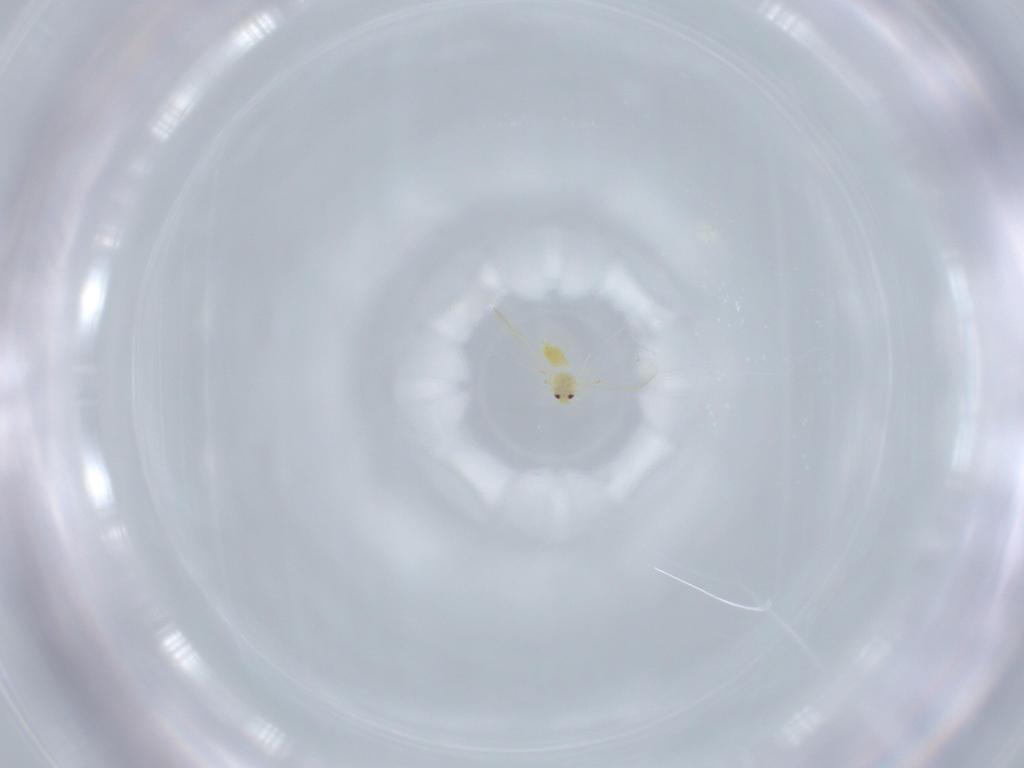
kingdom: Animalia
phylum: Arthropoda
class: Insecta
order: Hemiptera
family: Aleyrodidae
